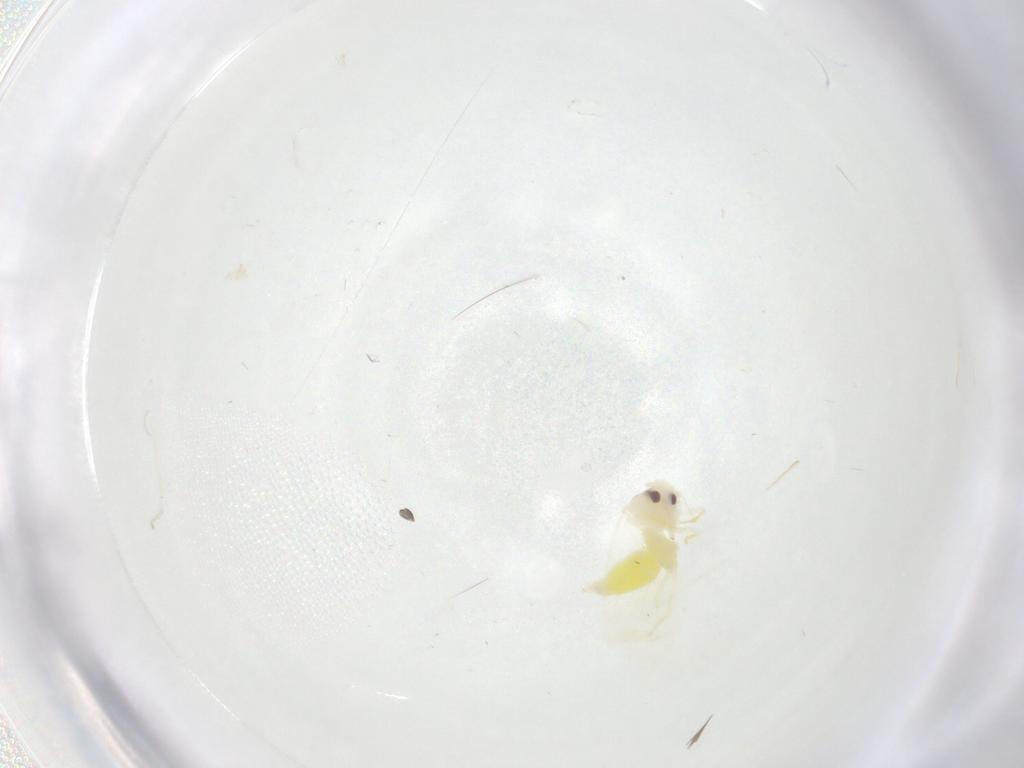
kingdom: Animalia
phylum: Arthropoda
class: Insecta
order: Hemiptera
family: Aleyrodidae
